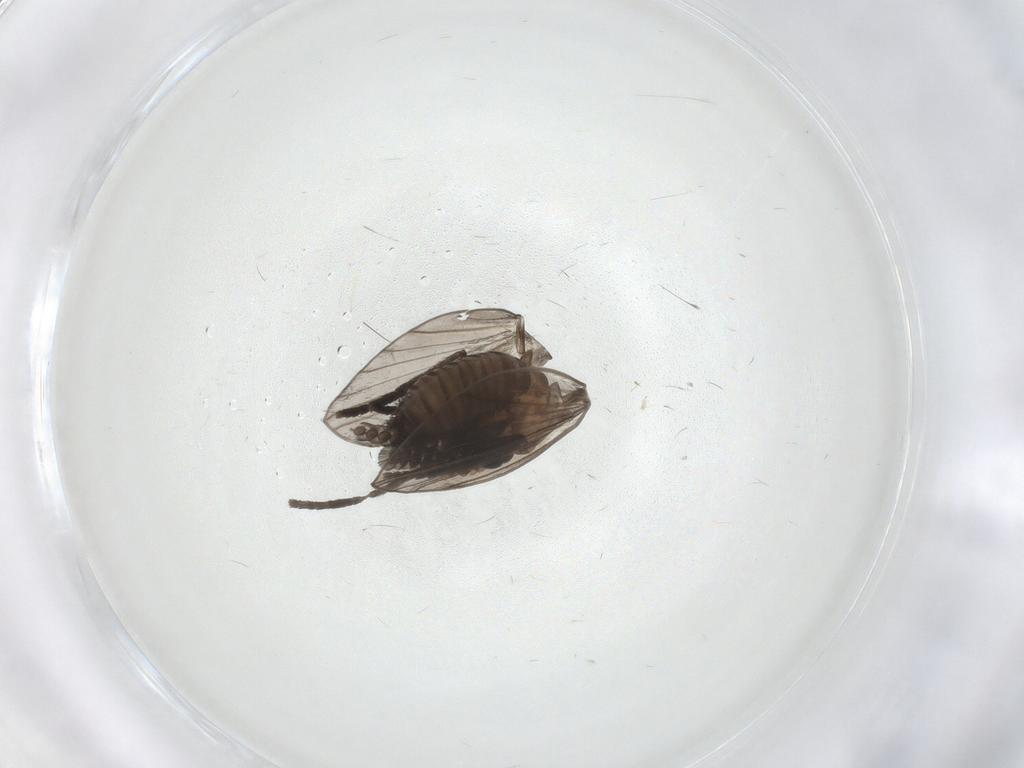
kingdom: Animalia
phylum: Arthropoda
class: Insecta
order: Diptera
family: Psychodidae
